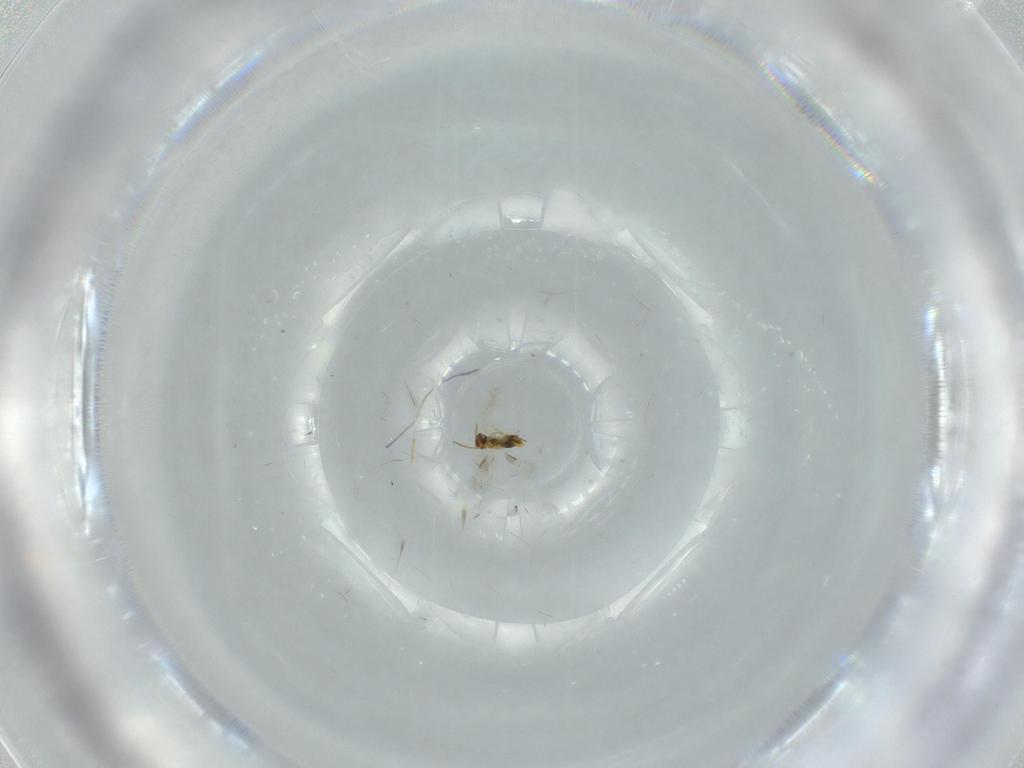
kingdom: Animalia
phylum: Arthropoda
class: Insecta
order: Hymenoptera
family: Aphelinidae
